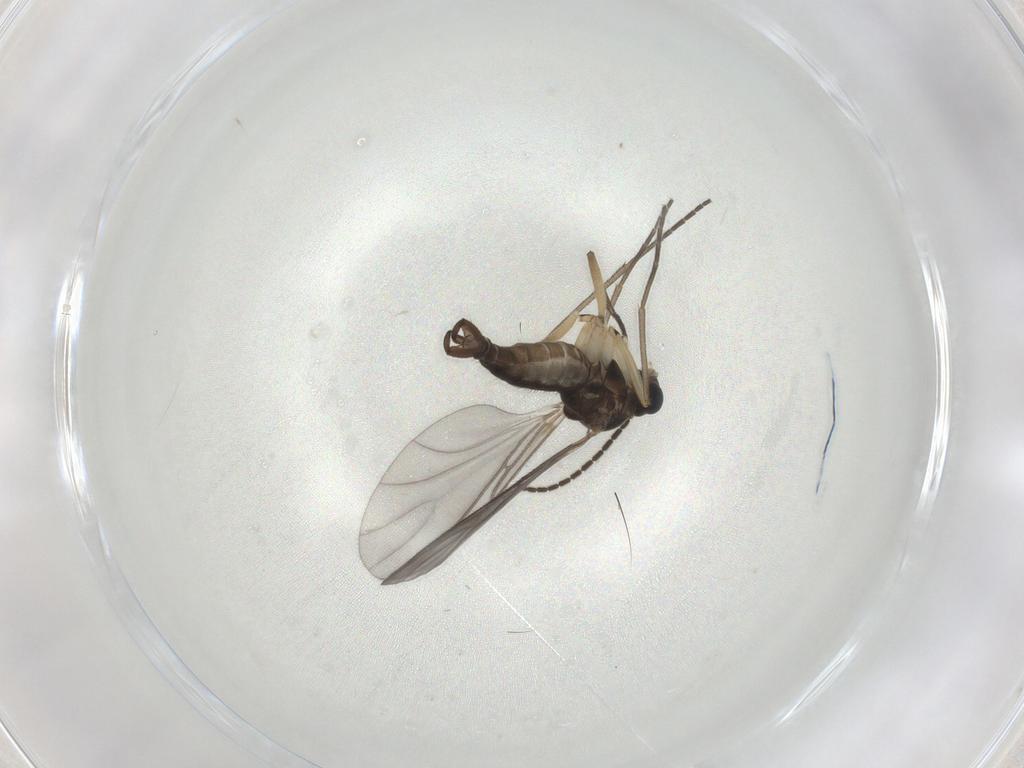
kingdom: Animalia
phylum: Arthropoda
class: Insecta
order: Diptera
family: Sciaridae
